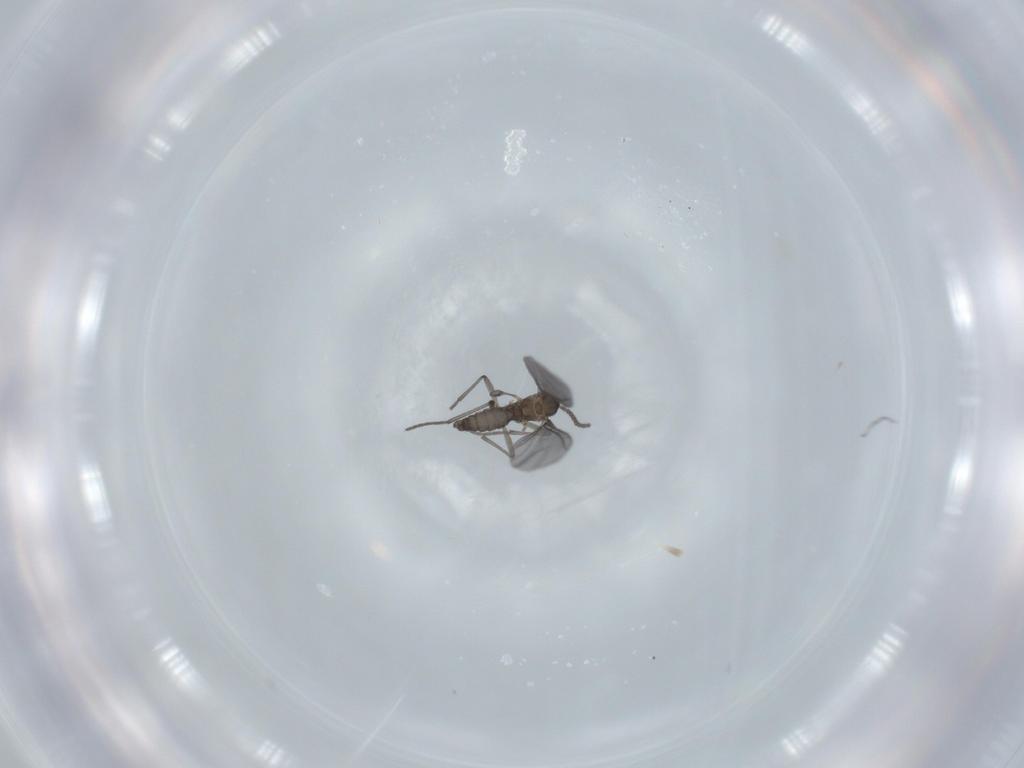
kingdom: Animalia
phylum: Arthropoda
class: Insecta
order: Diptera
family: Sciaridae
